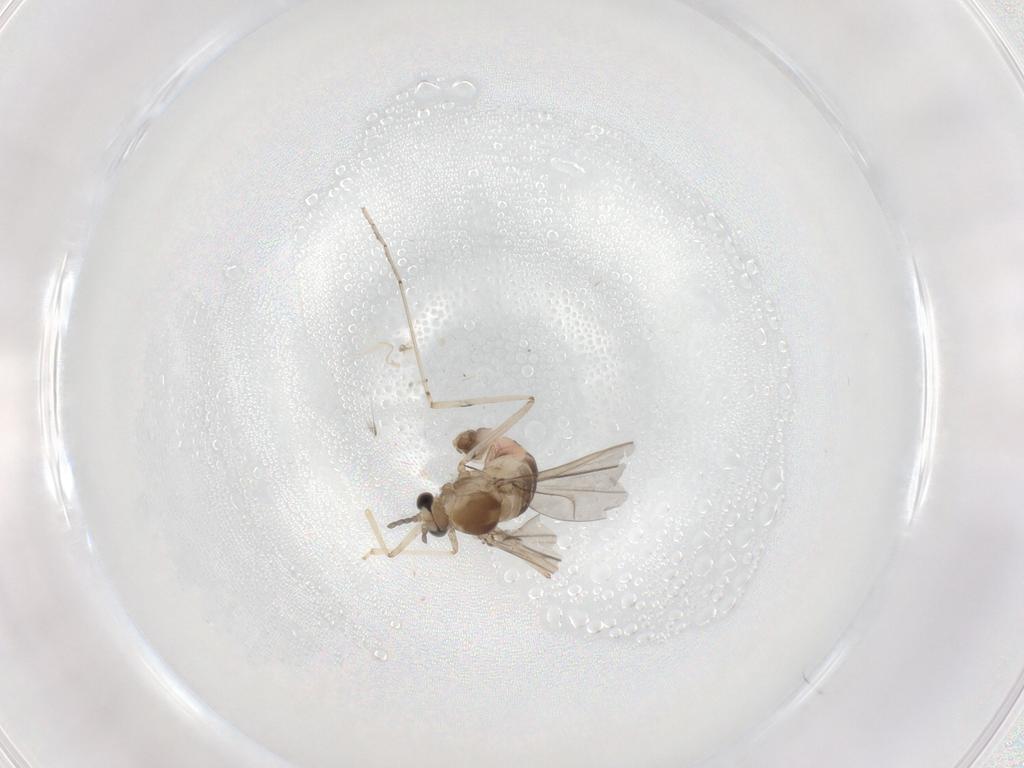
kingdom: Animalia
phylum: Arthropoda
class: Insecta
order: Diptera
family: Cecidomyiidae
